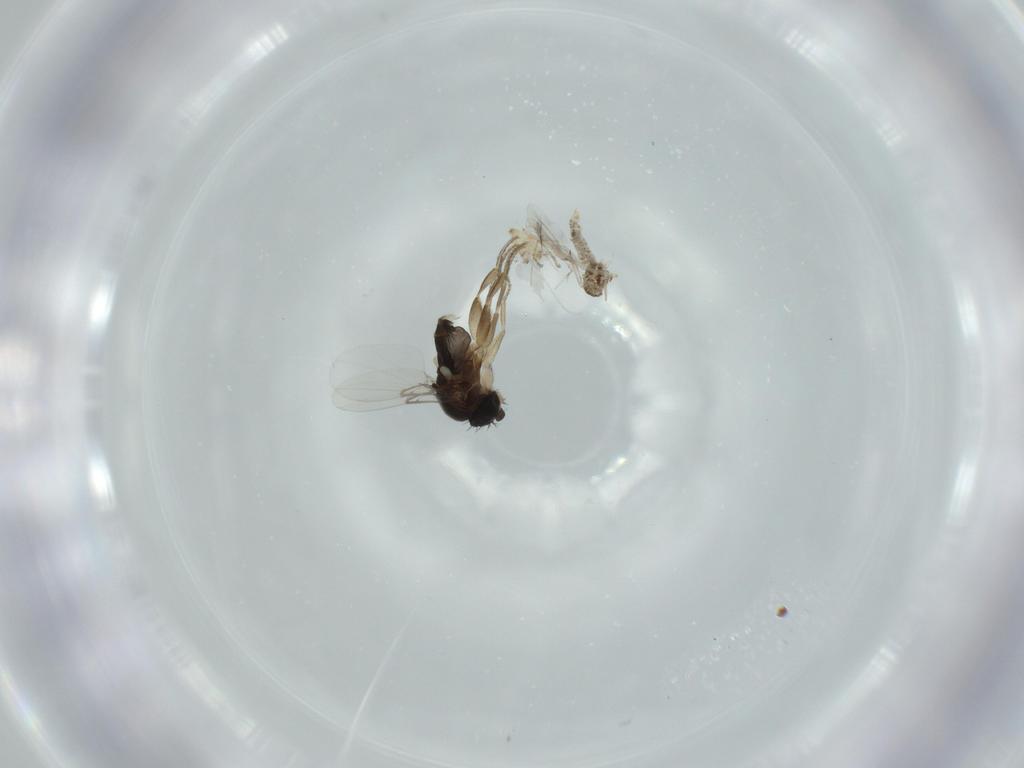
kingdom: Animalia
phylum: Arthropoda
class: Insecta
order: Diptera
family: Phoridae
